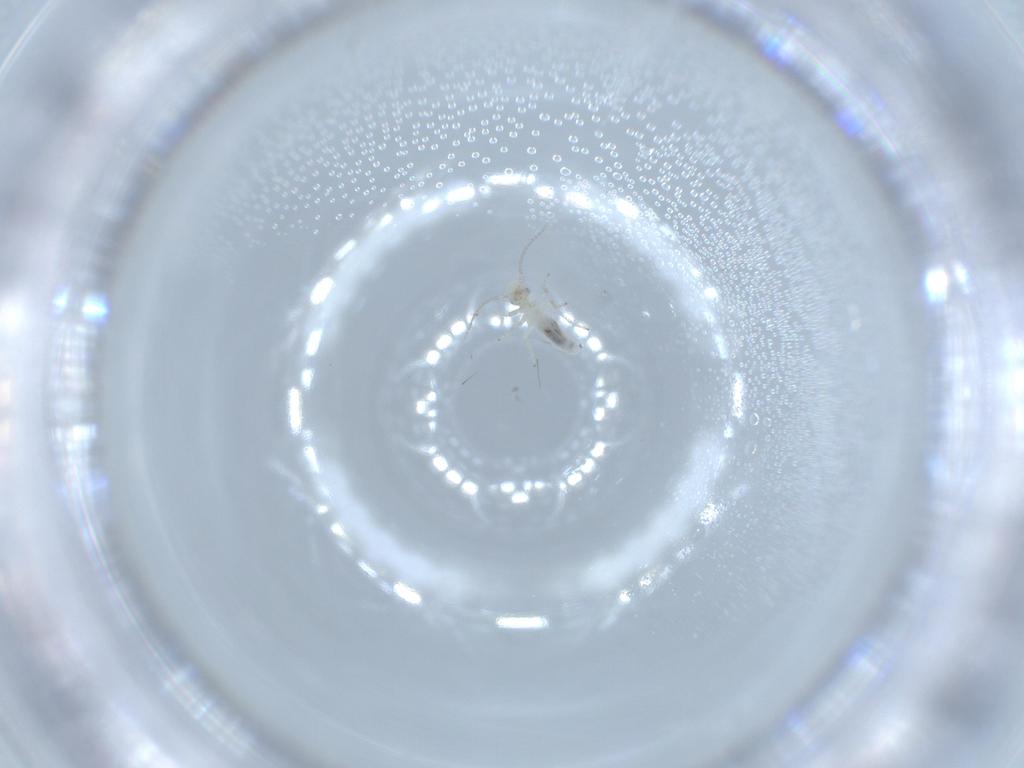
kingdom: Animalia
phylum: Arthropoda
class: Insecta
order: Psocodea
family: Caeciliusidae
